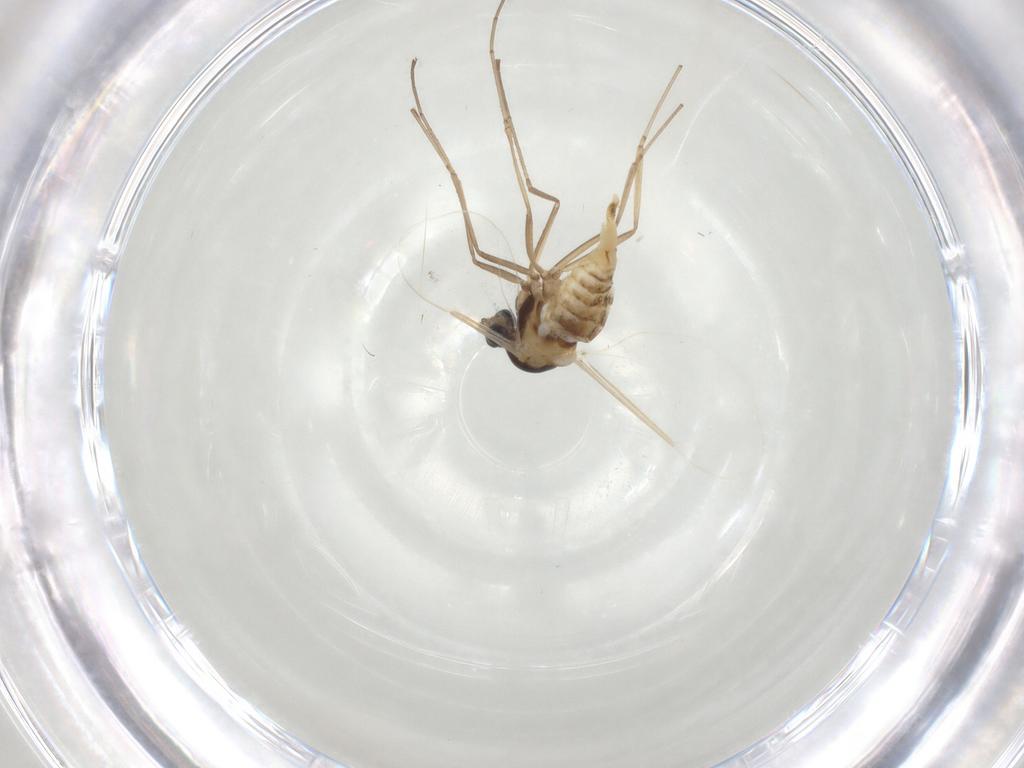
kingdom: Animalia
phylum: Arthropoda
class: Insecta
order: Diptera
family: Cecidomyiidae
